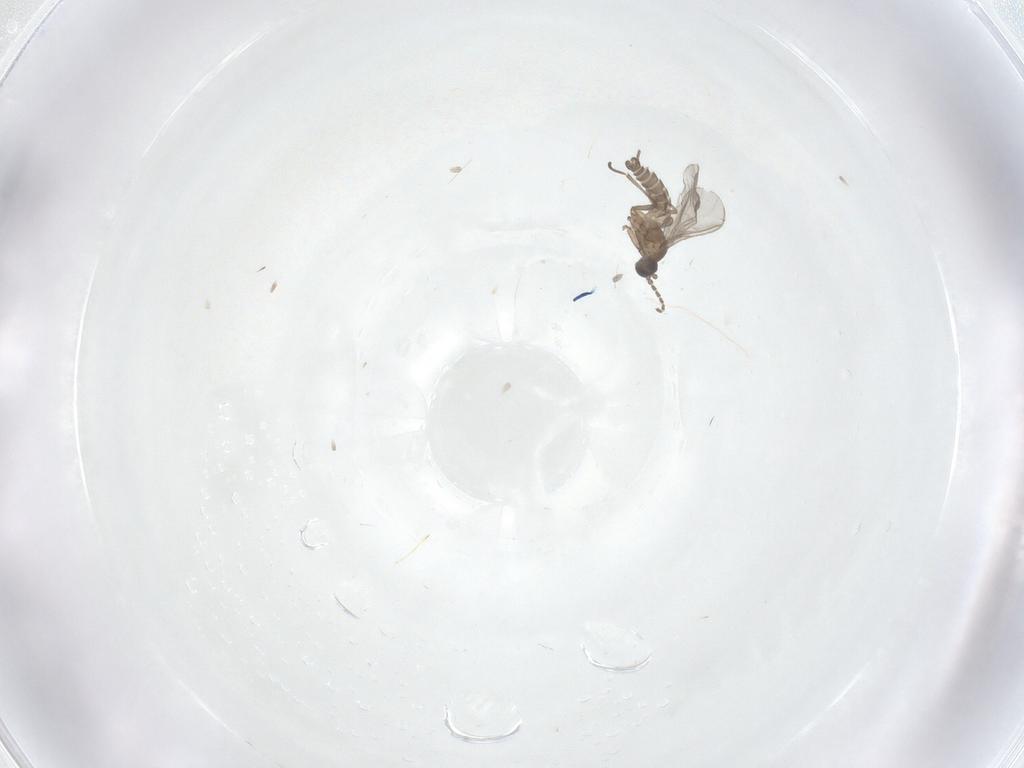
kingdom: Animalia
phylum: Arthropoda
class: Insecta
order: Diptera
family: Sciaridae
